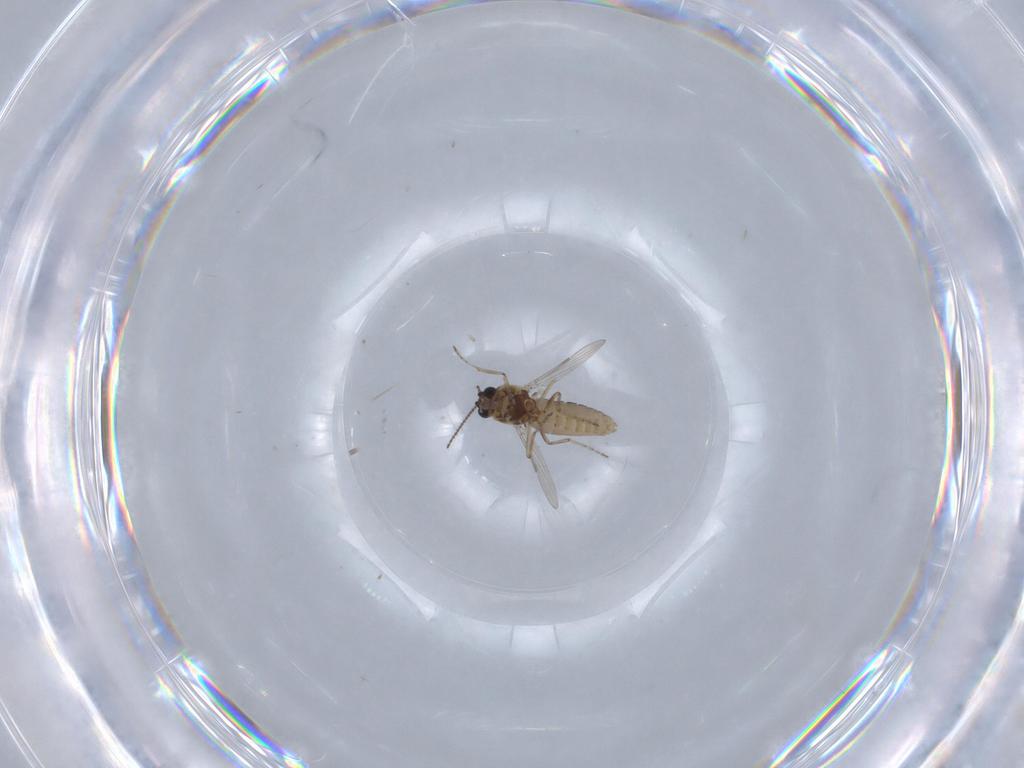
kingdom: Animalia
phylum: Arthropoda
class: Insecta
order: Diptera
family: Ceratopogonidae
